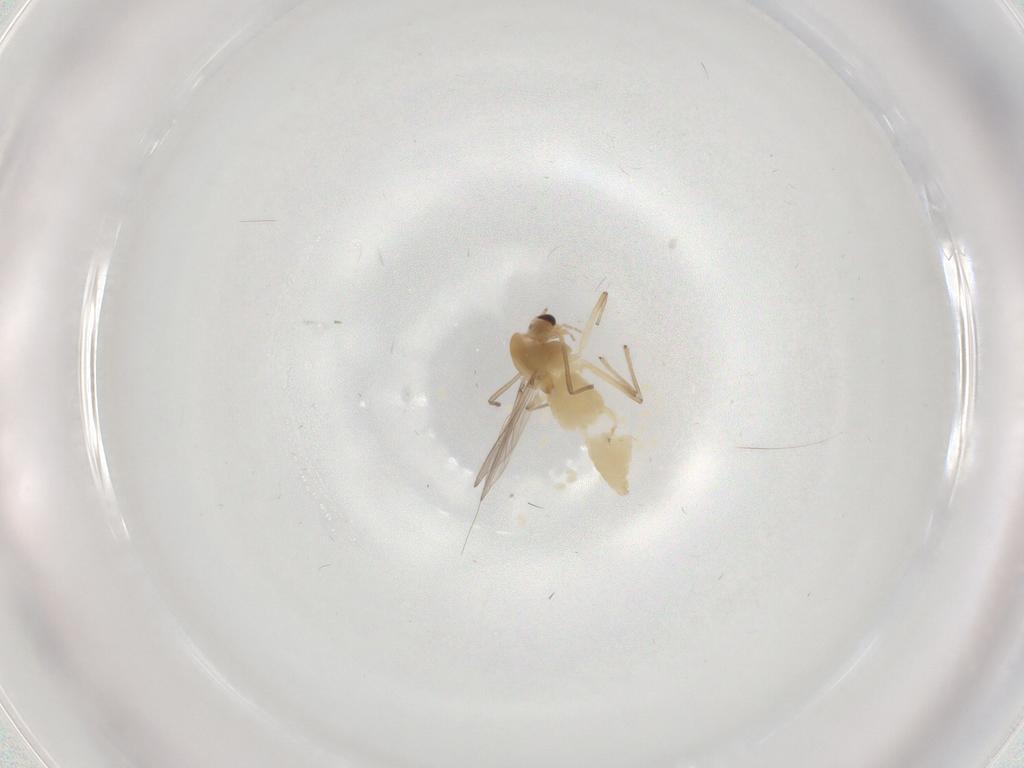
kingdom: Animalia
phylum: Arthropoda
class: Insecta
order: Diptera
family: Chironomidae
